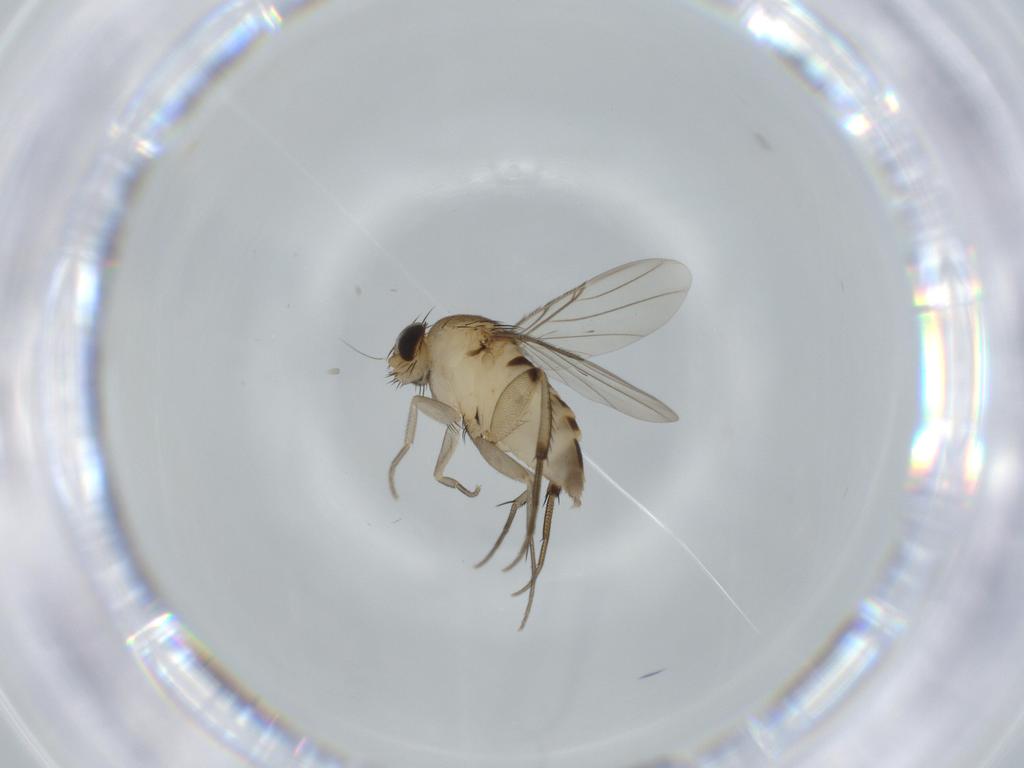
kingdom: Animalia
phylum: Arthropoda
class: Insecta
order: Diptera
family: Phoridae
